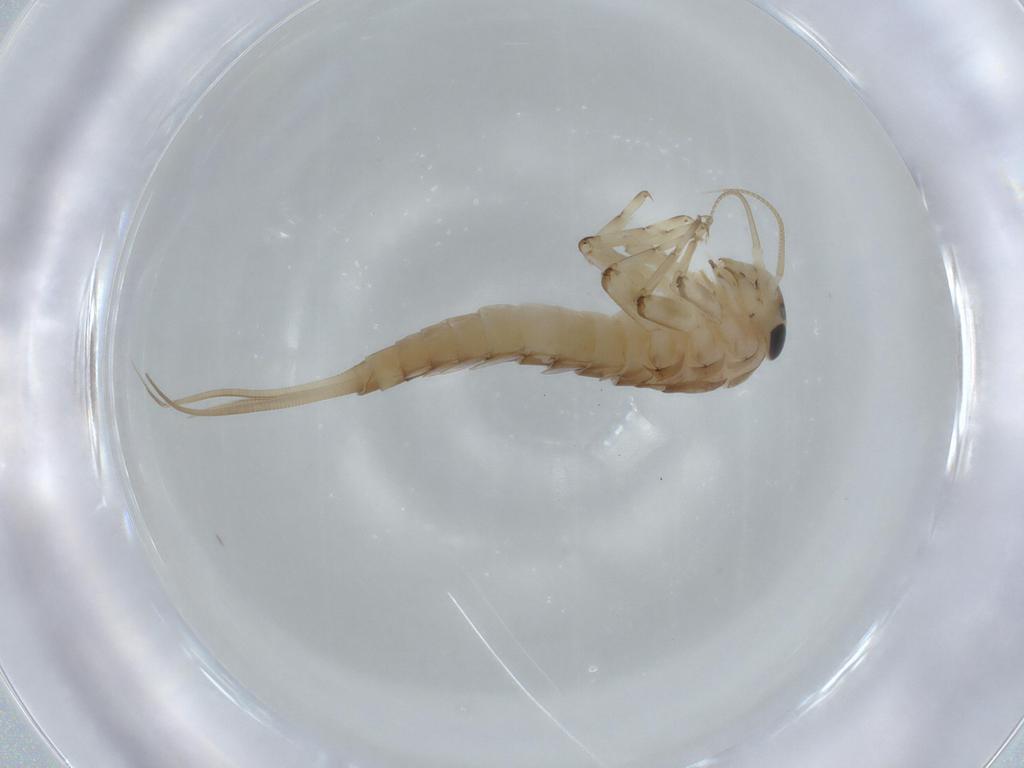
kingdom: Animalia
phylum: Arthropoda
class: Insecta
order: Ephemeroptera
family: Baetidae
